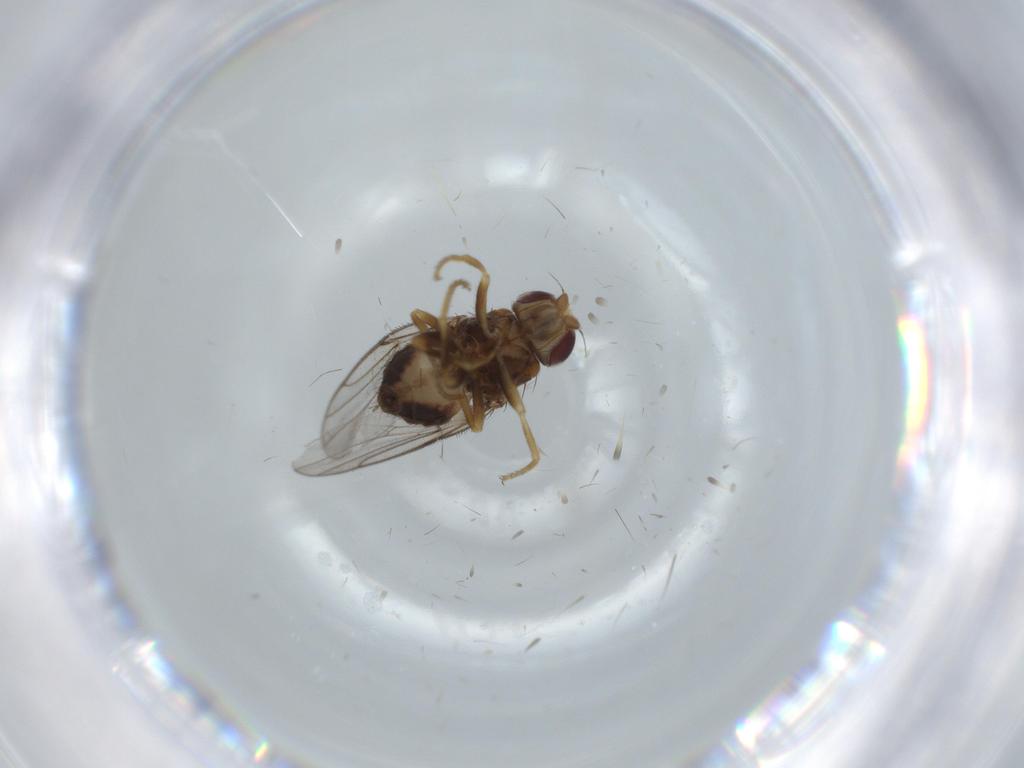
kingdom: Animalia
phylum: Arthropoda
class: Insecta
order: Diptera
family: Chloropidae
